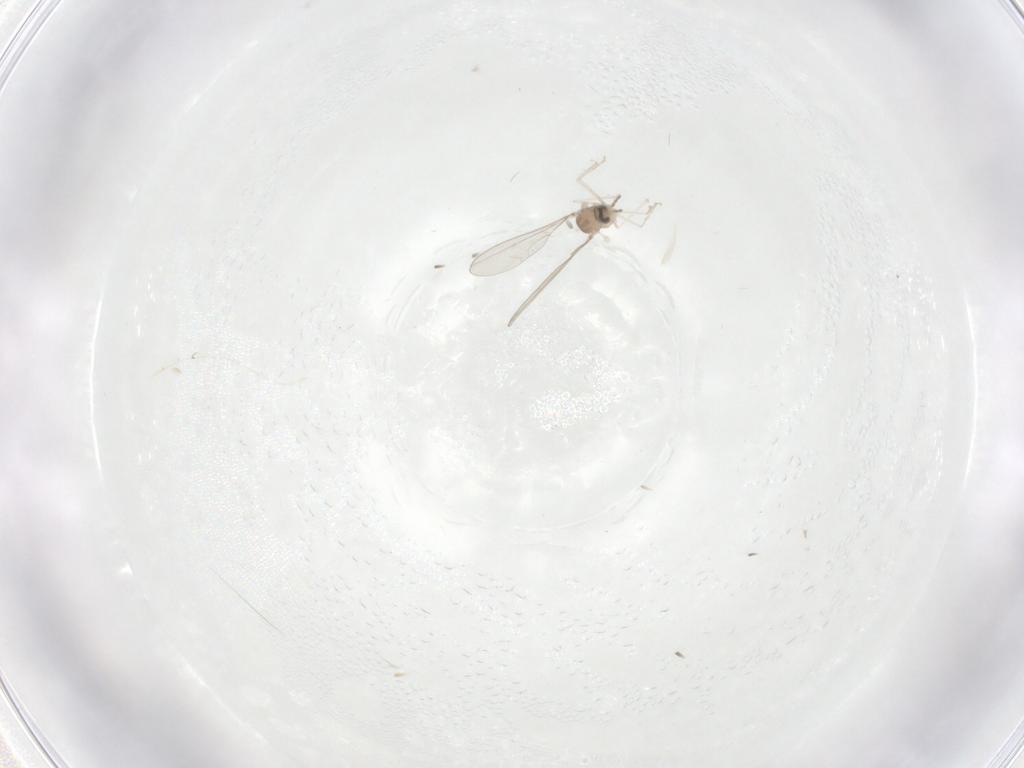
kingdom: Animalia
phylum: Arthropoda
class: Insecta
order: Diptera
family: Cecidomyiidae
